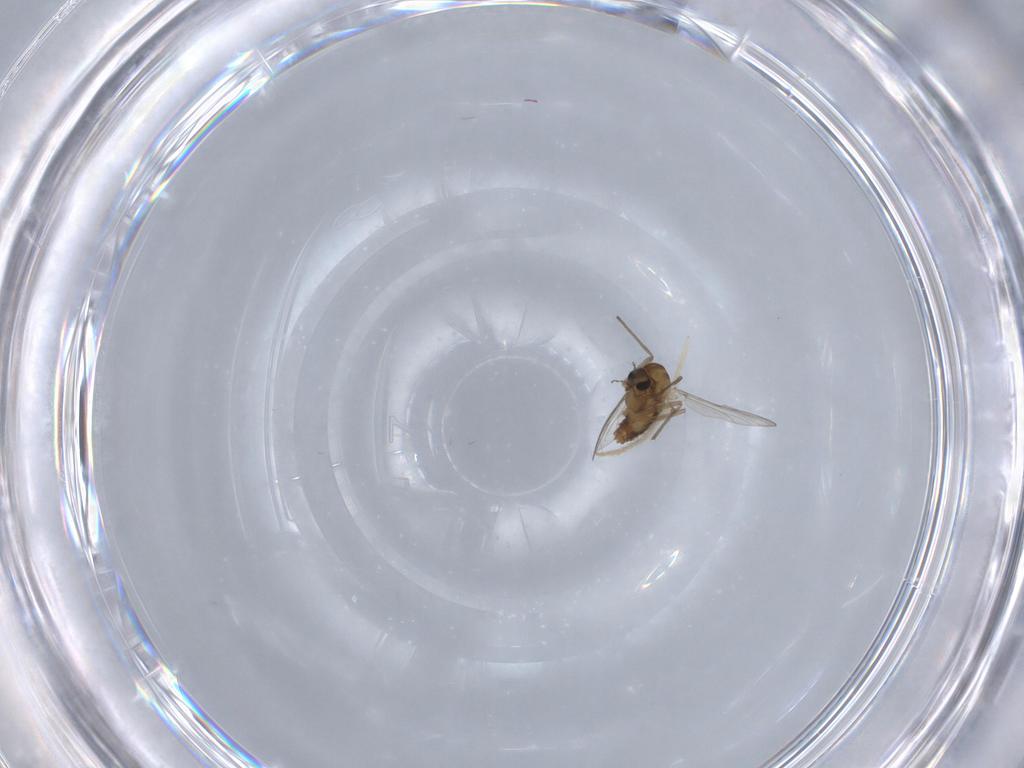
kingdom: Animalia
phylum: Arthropoda
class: Insecta
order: Diptera
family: Chironomidae
